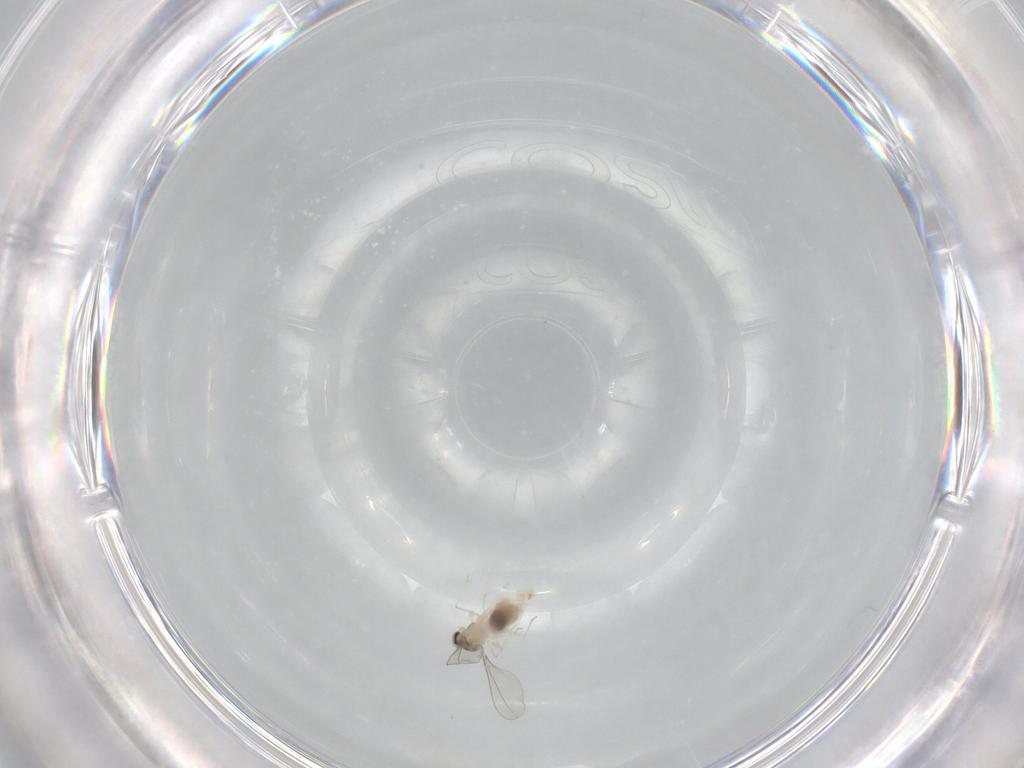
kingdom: Animalia
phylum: Arthropoda
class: Insecta
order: Diptera
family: Cecidomyiidae
